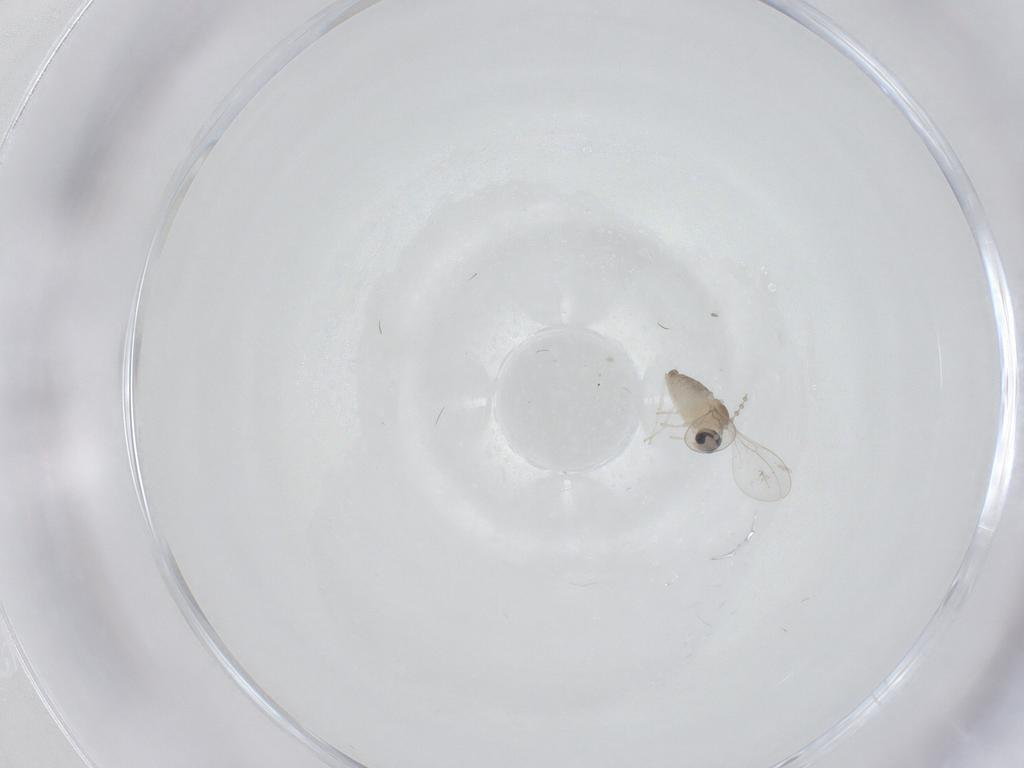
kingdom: Animalia
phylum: Arthropoda
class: Insecta
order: Diptera
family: Cecidomyiidae
